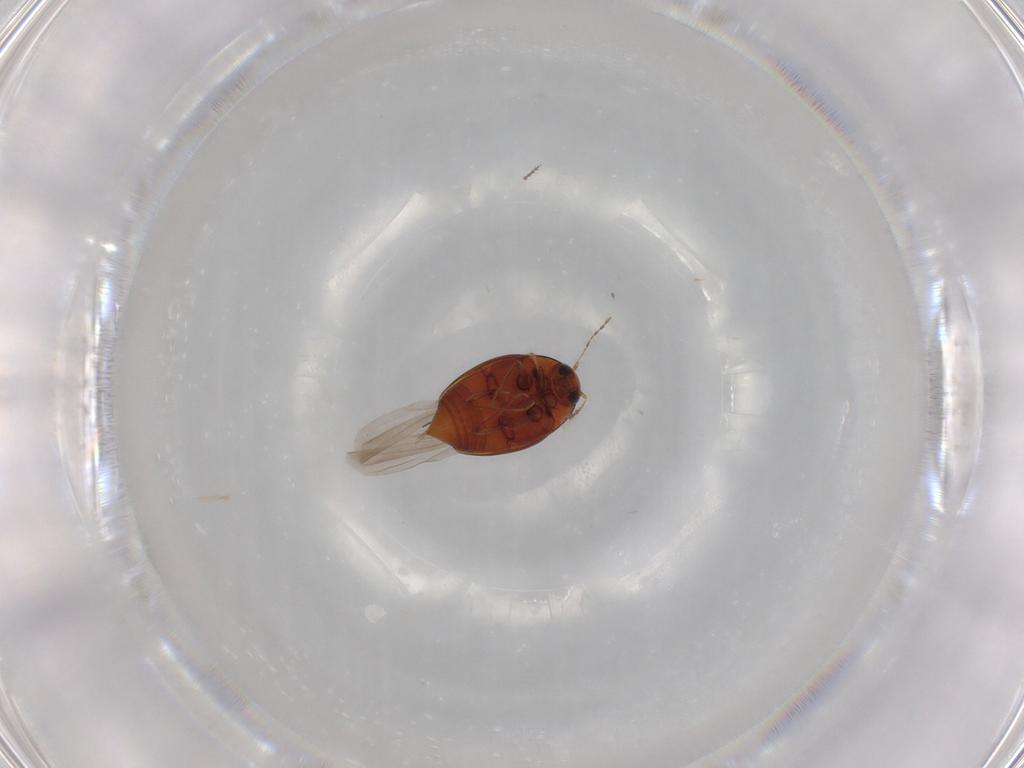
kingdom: Animalia
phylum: Arthropoda
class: Insecta
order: Coleoptera
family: Staphylinidae
